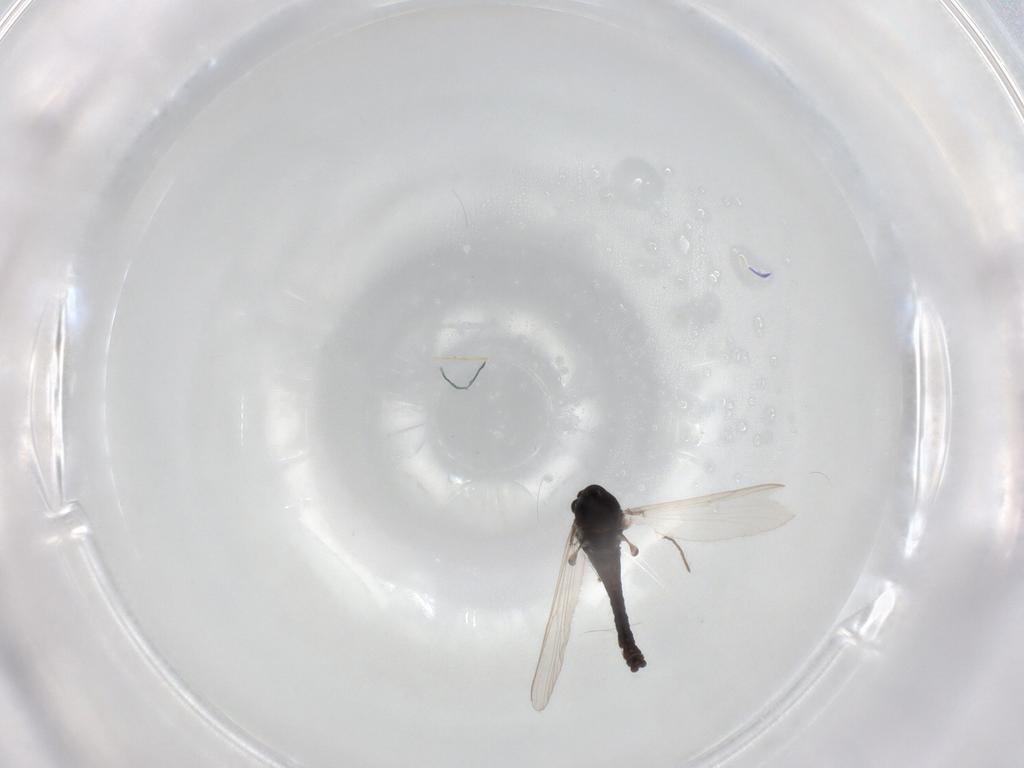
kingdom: Animalia
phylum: Arthropoda
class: Insecta
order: Diptera
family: Chironomidae
